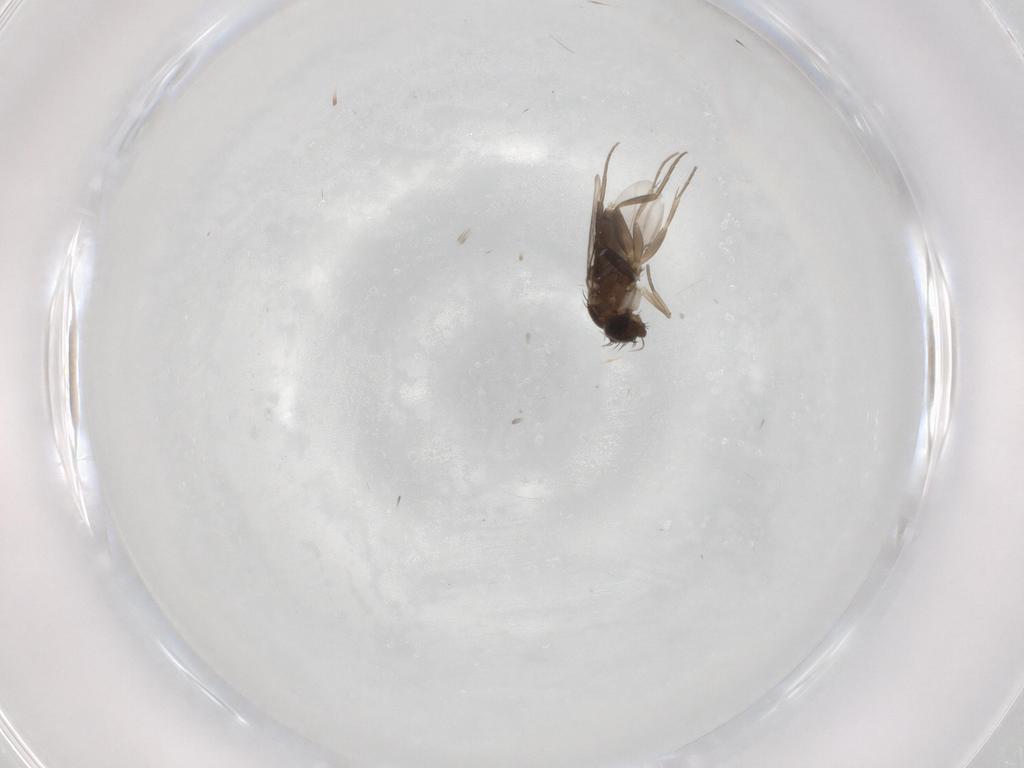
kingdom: Animalia
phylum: Arthropoda
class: Insecta
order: Diptera
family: Phoridae
